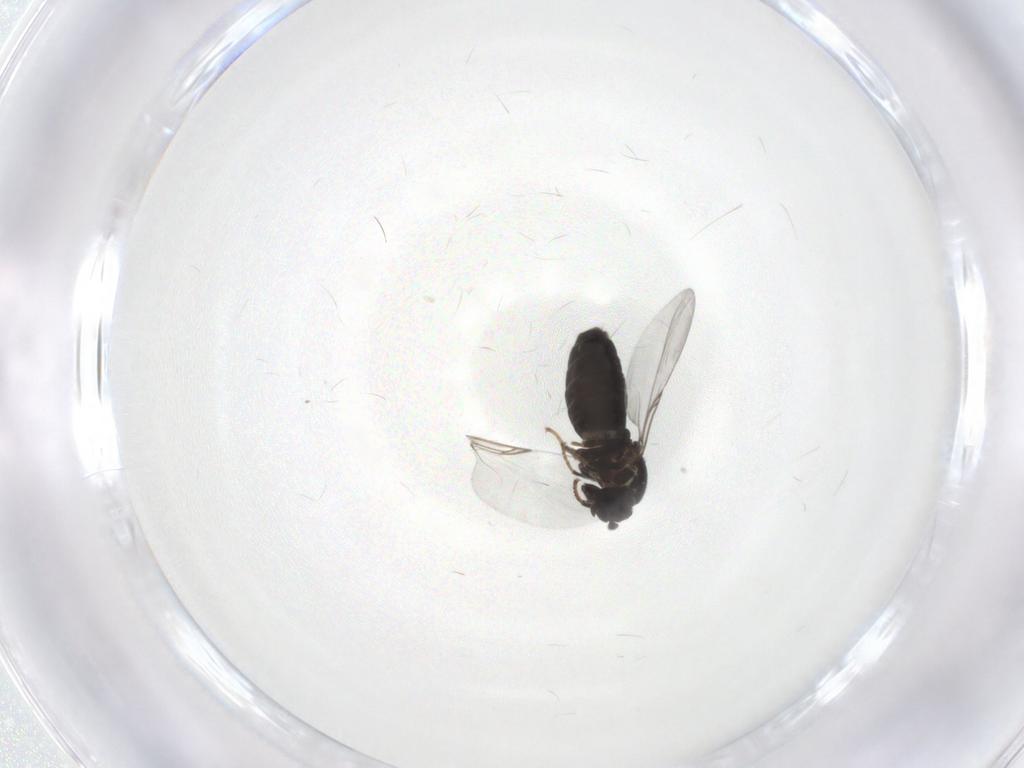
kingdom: Animalia
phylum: Arthropoda
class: Insecta
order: Diptera
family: Scatopsidae
